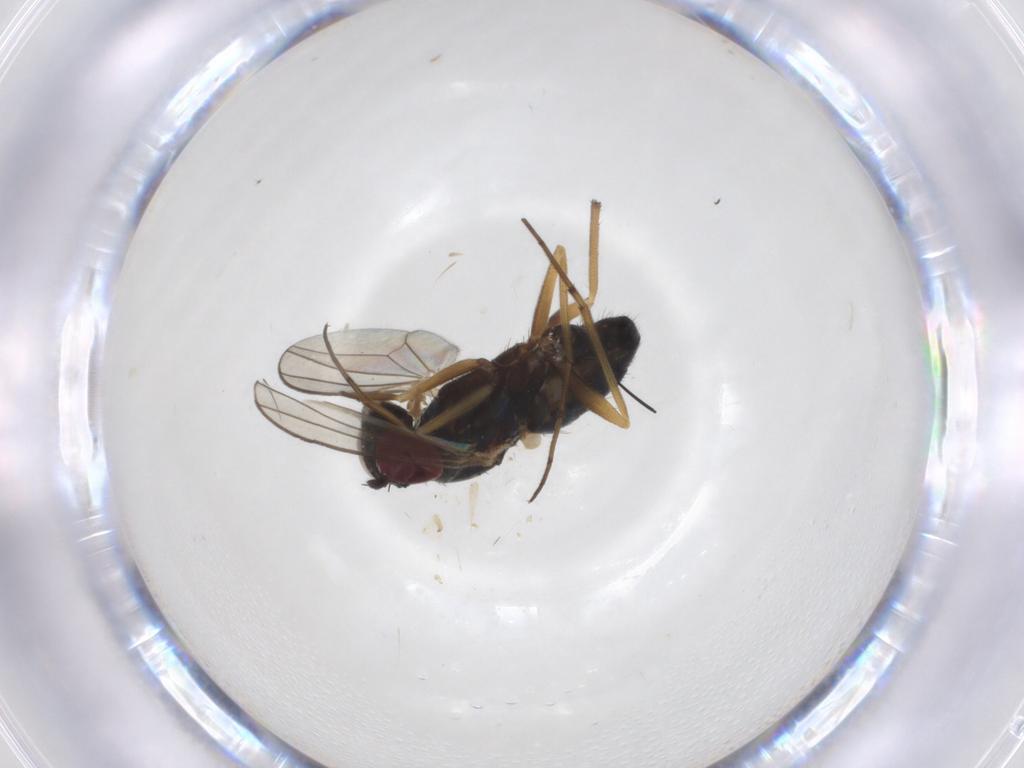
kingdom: Animalia
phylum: Arthropoda
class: Insecta
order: Diptera
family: Dolichopodidae
